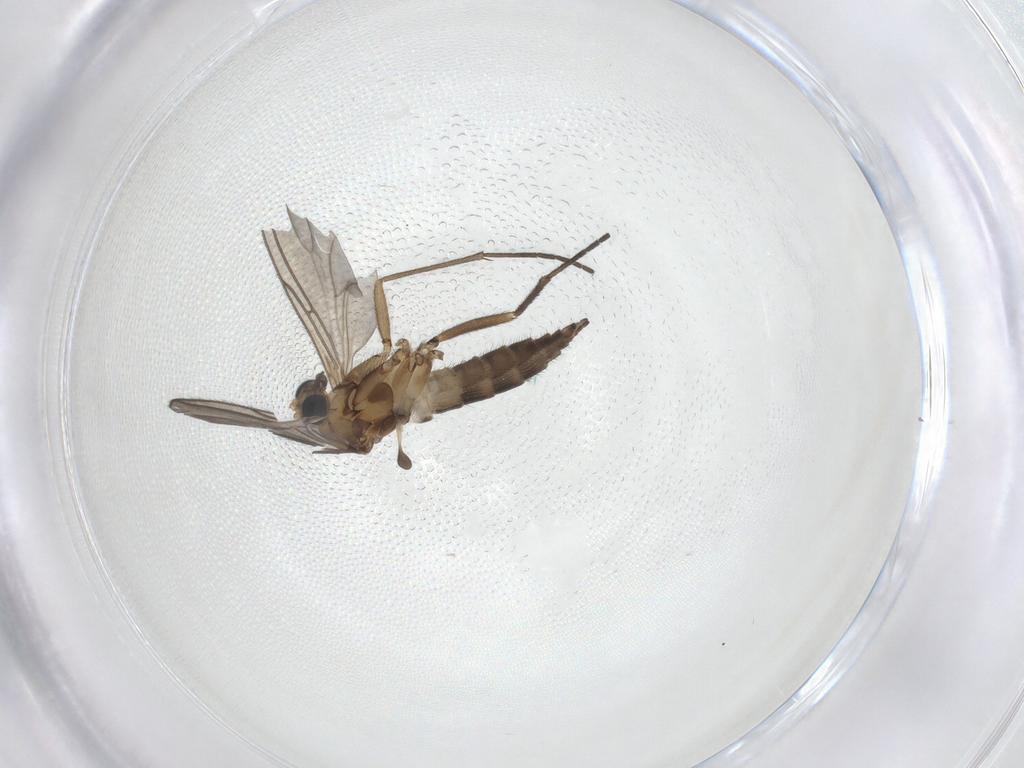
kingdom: Animalia
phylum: Arthropoda
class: Insecta
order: Diptera
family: Sciaridae
